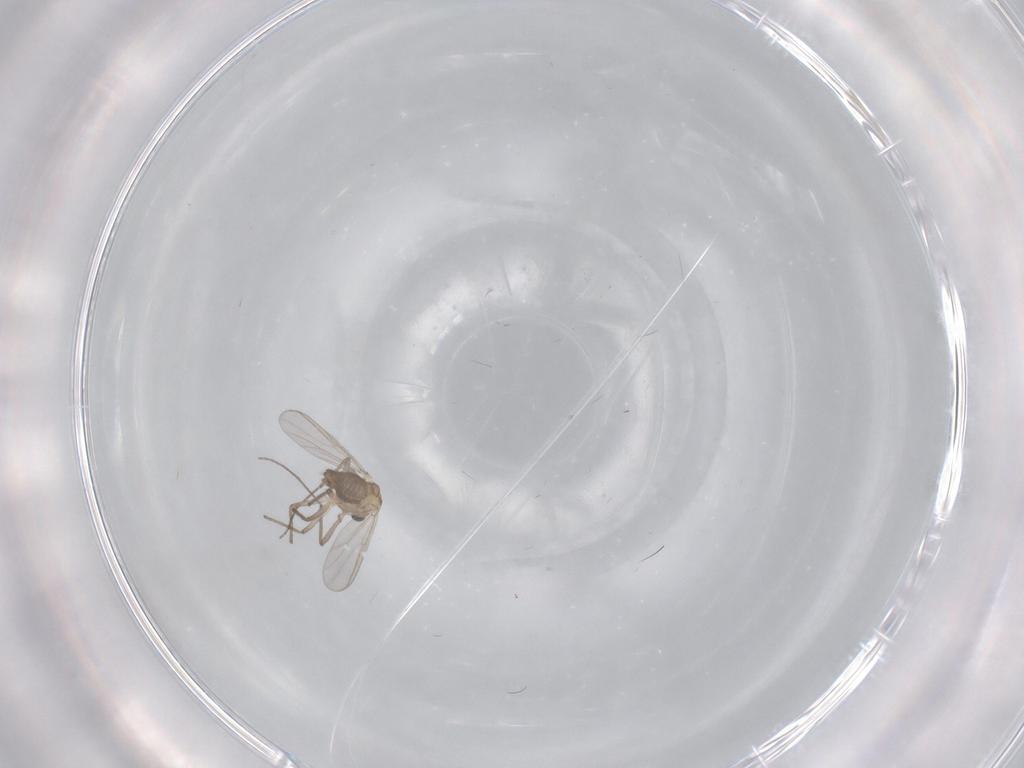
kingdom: Animalia
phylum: Arthropoda
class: Insecta
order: Diptera
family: Chironomidae
